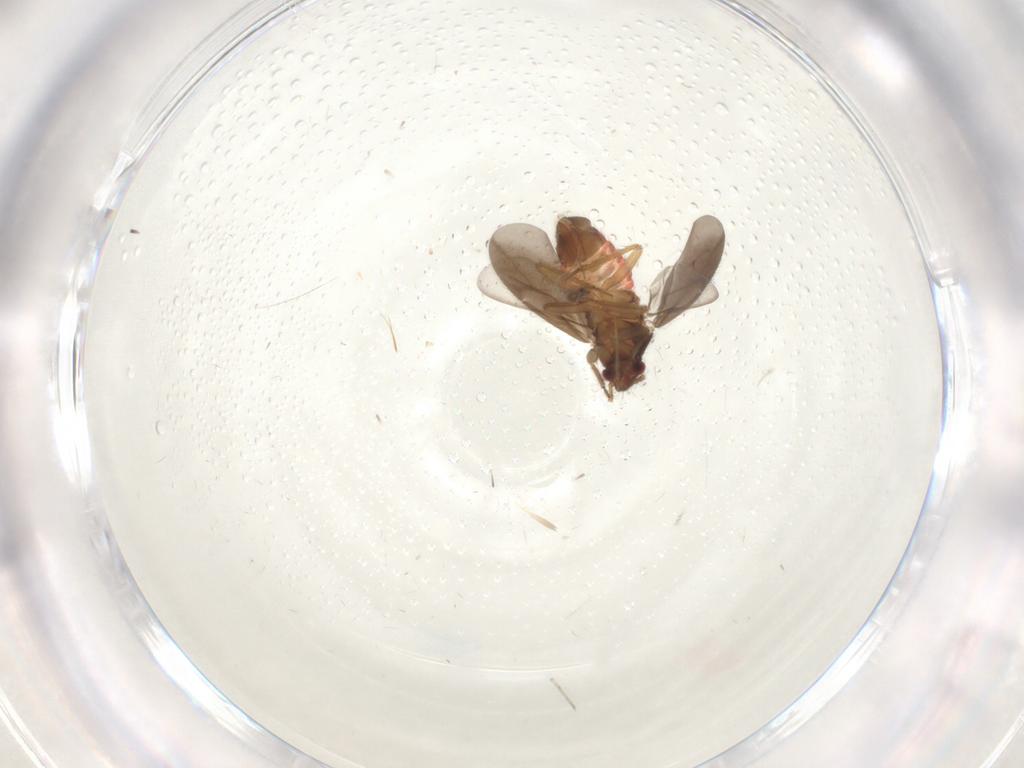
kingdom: Animalia
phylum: Arthropoda
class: Insecta
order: Hemiptera
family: Ceratocombidae
